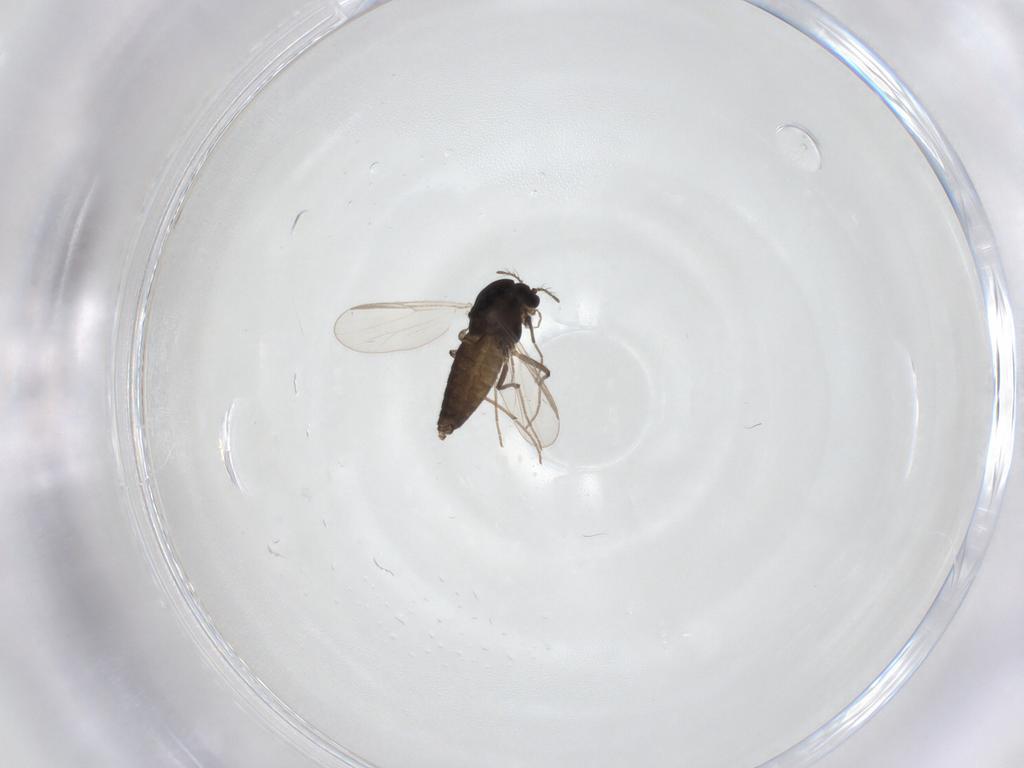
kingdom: Animalia
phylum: Arthropoda
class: Insecta
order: Diptera
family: Chironomidae
